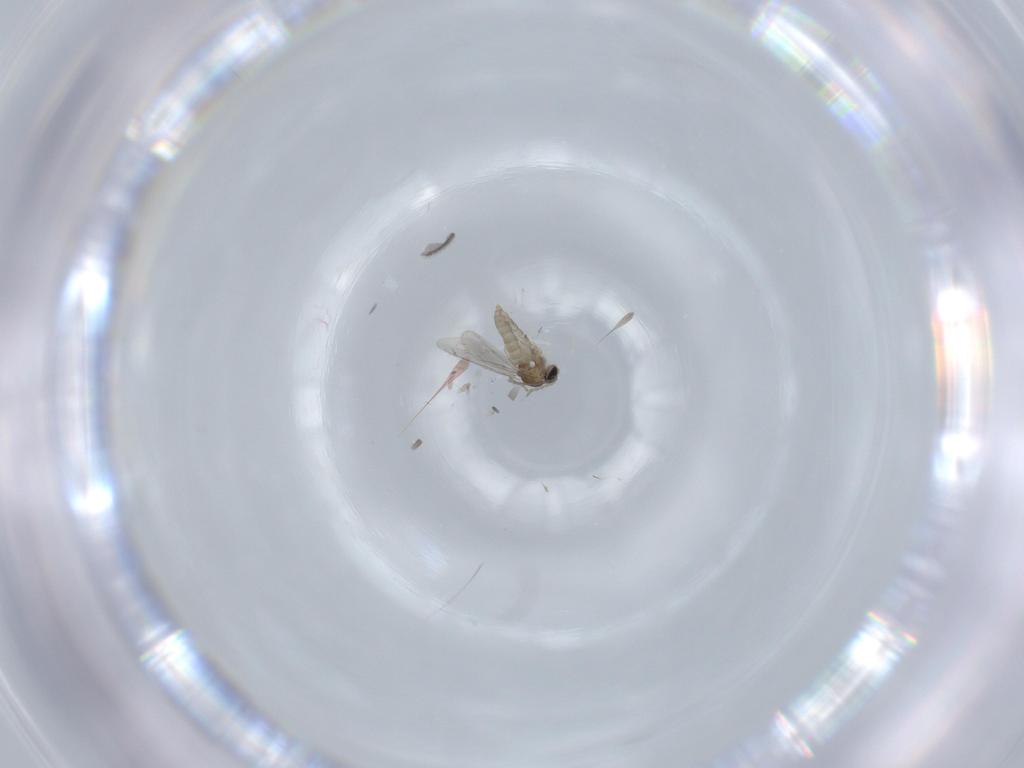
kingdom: Animalia
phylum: Arthropoda
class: Insecta
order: Diptera
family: Cecidomyiidae
